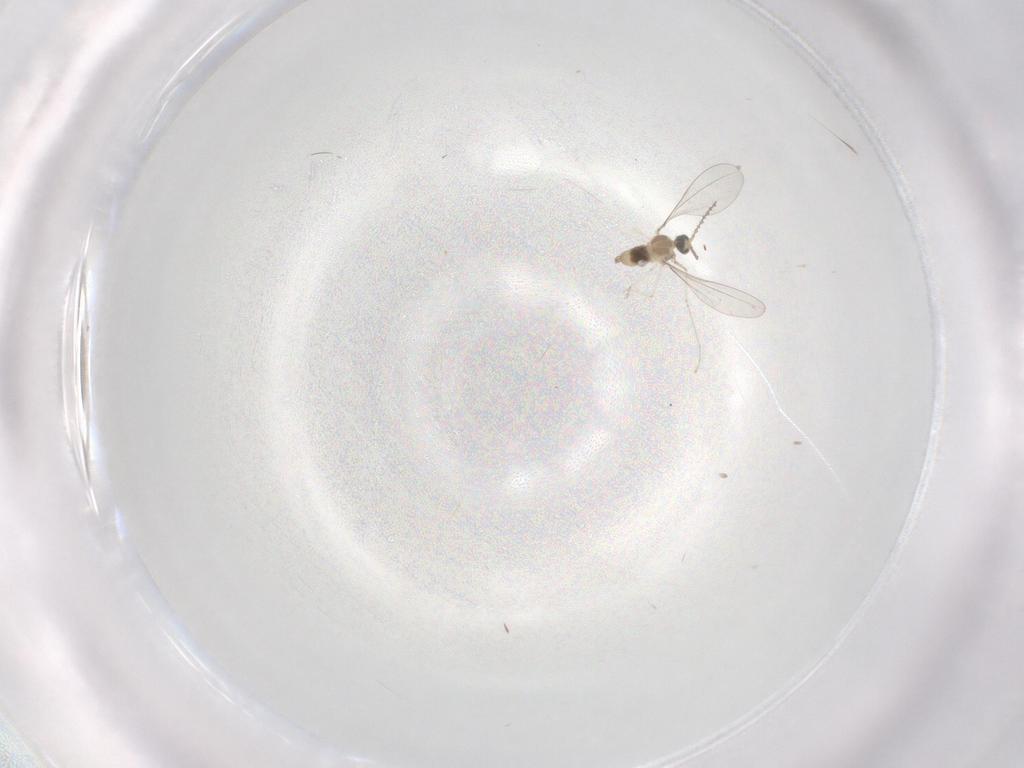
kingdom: Animalia
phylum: Arthropoda
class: Insecta
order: Diptera
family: Cecidomyiidae
